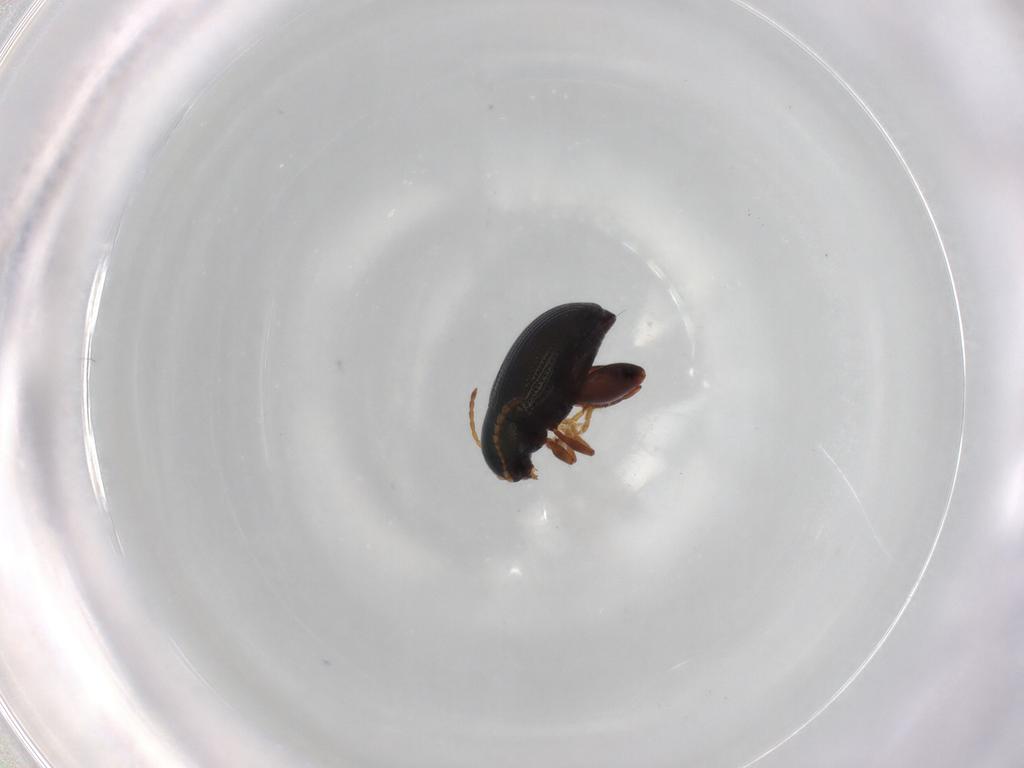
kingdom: Animalia
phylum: Arthropoda
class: Insecta
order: Coleoptera
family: Chrysomelidae
